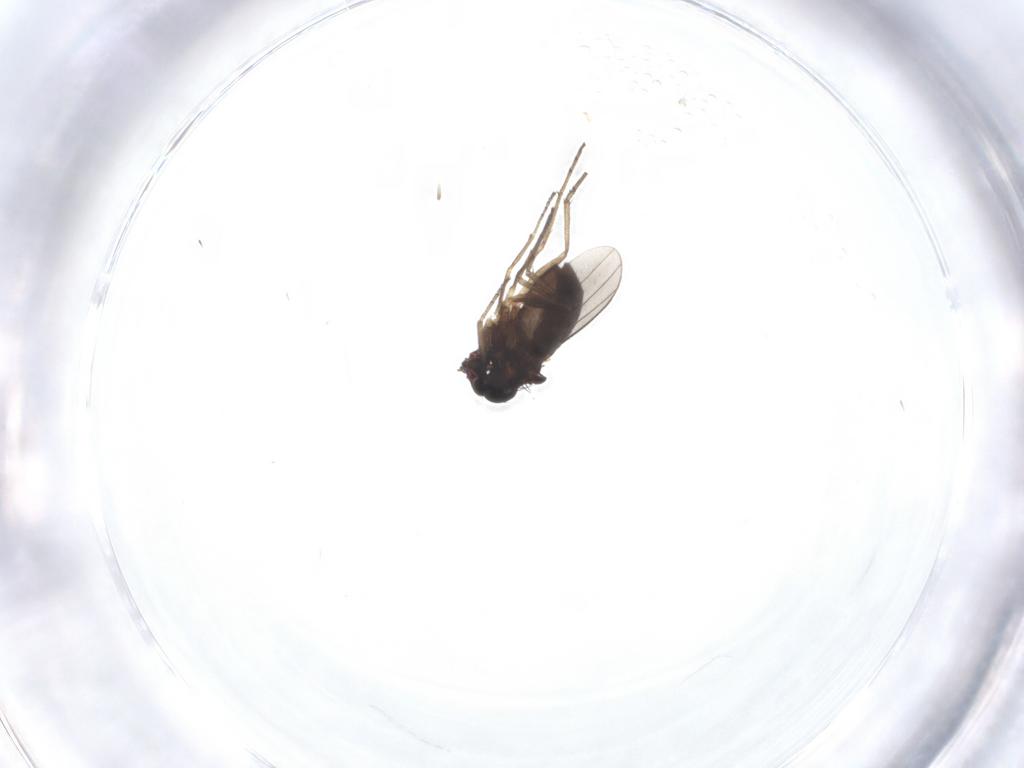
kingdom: Animalia
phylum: Arthropoda
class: Insecta
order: Diptera
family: Dolichopodidae
